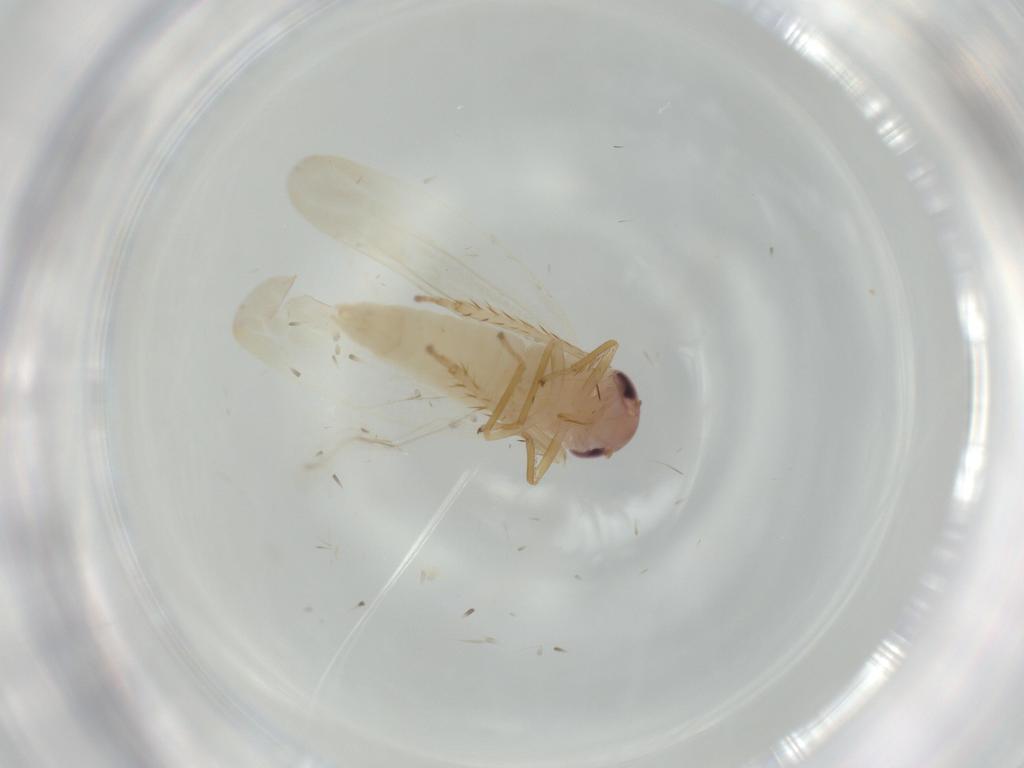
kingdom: Animalia
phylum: Arthropoda
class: Insecta
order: Hemiptera
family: Cicadellidae
